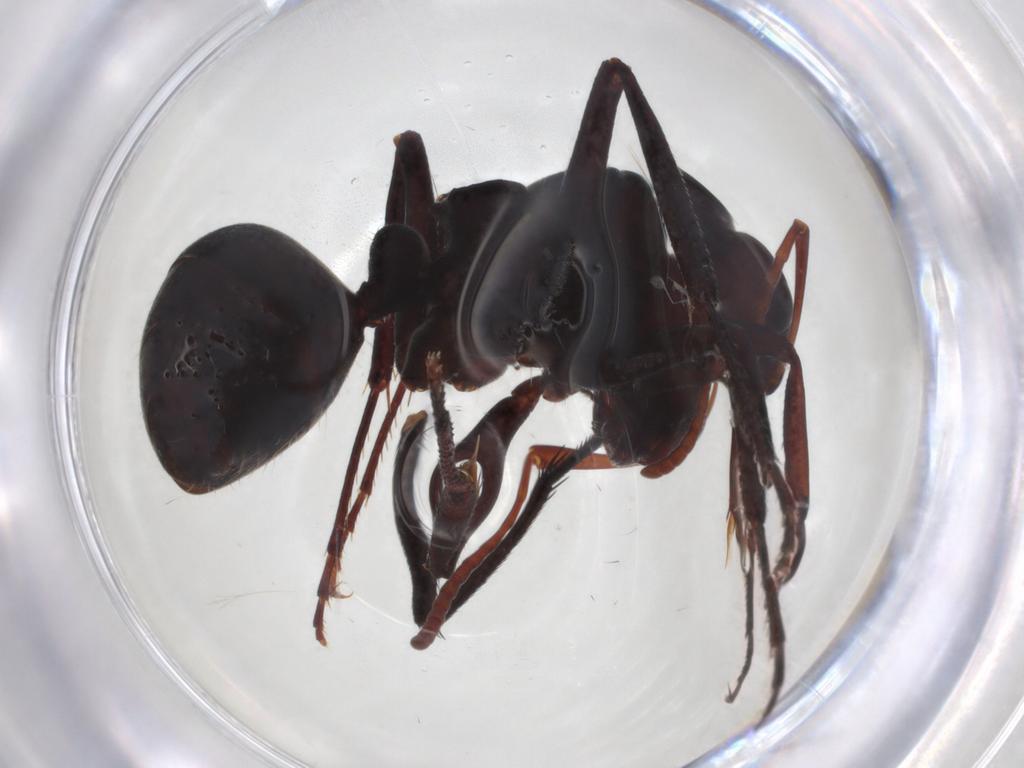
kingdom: Animalia
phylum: Arthropoda
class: Insecta
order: Hymenoptera
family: Formicidae
